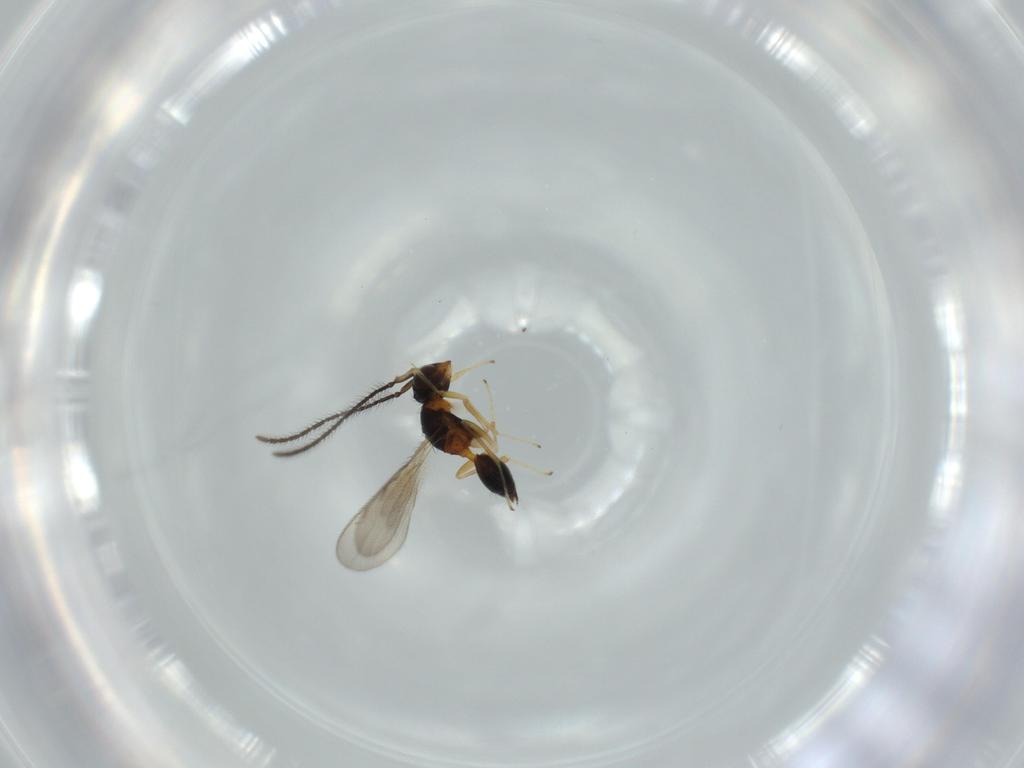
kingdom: Animalia
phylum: Arthropoda
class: Insecta
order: Hymenoptera
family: Diparidae
